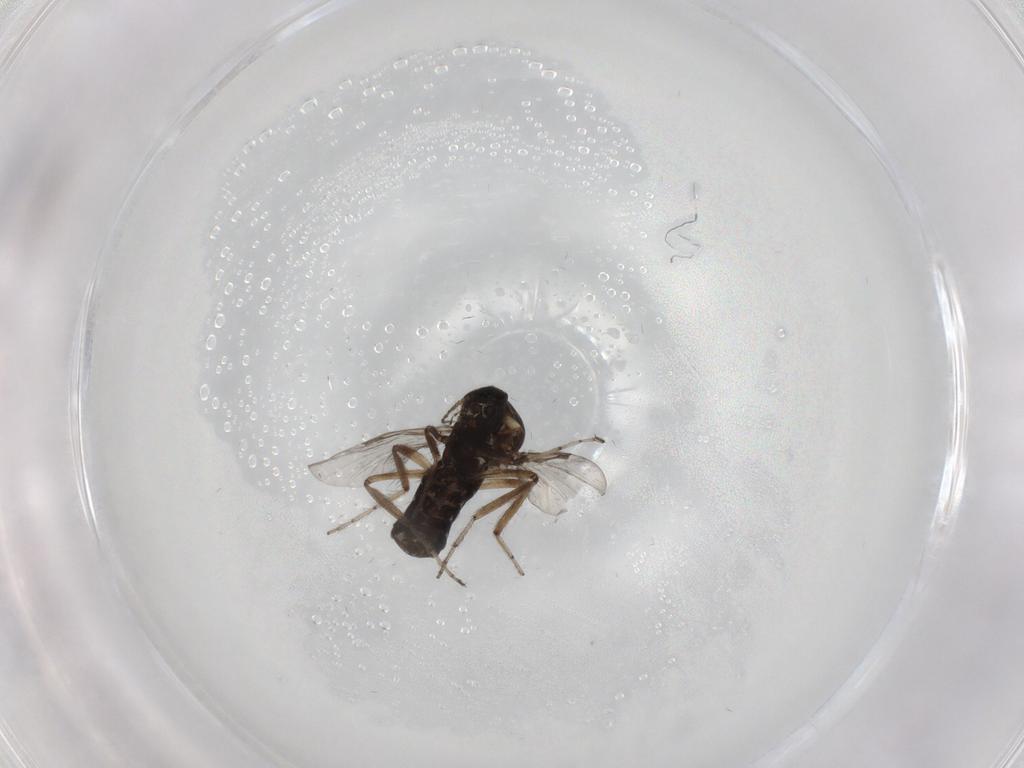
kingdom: Animalia
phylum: Arthropoda
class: Insecta
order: Diptera
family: Ceratopogonidae
